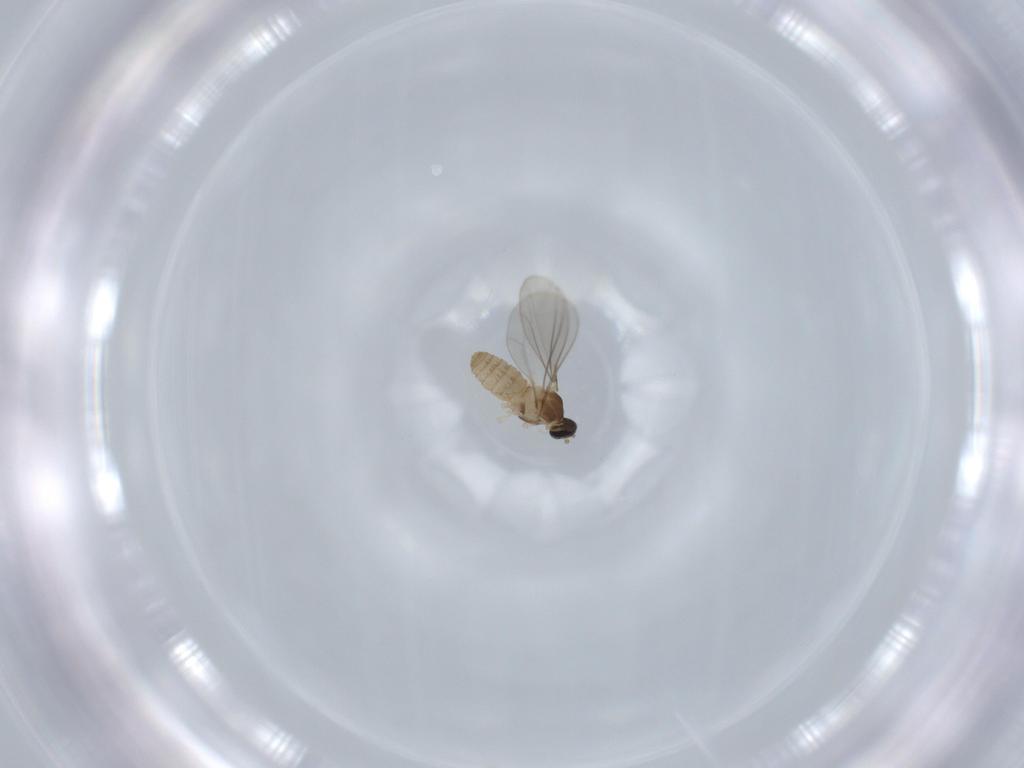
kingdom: Animalia
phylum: Arthropoda
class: Insecta
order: Diptera
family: Cecidomyiidae
